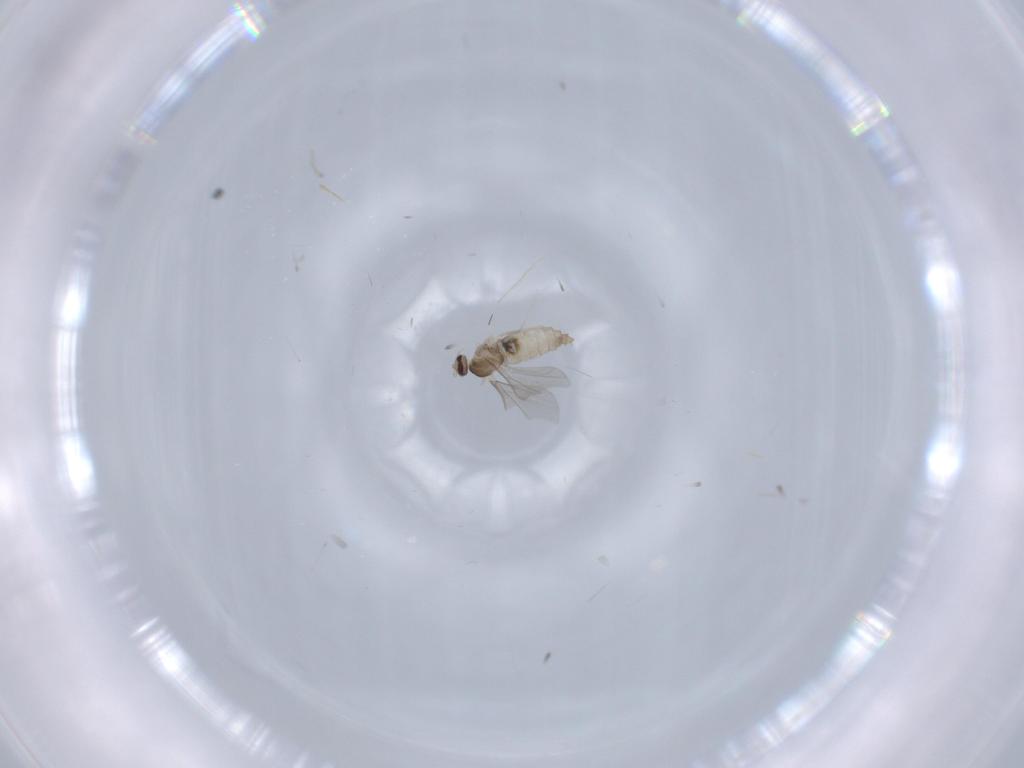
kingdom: Animalia
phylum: Arthropoda
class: Insecta
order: Diptera
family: Cecidomyiidae
